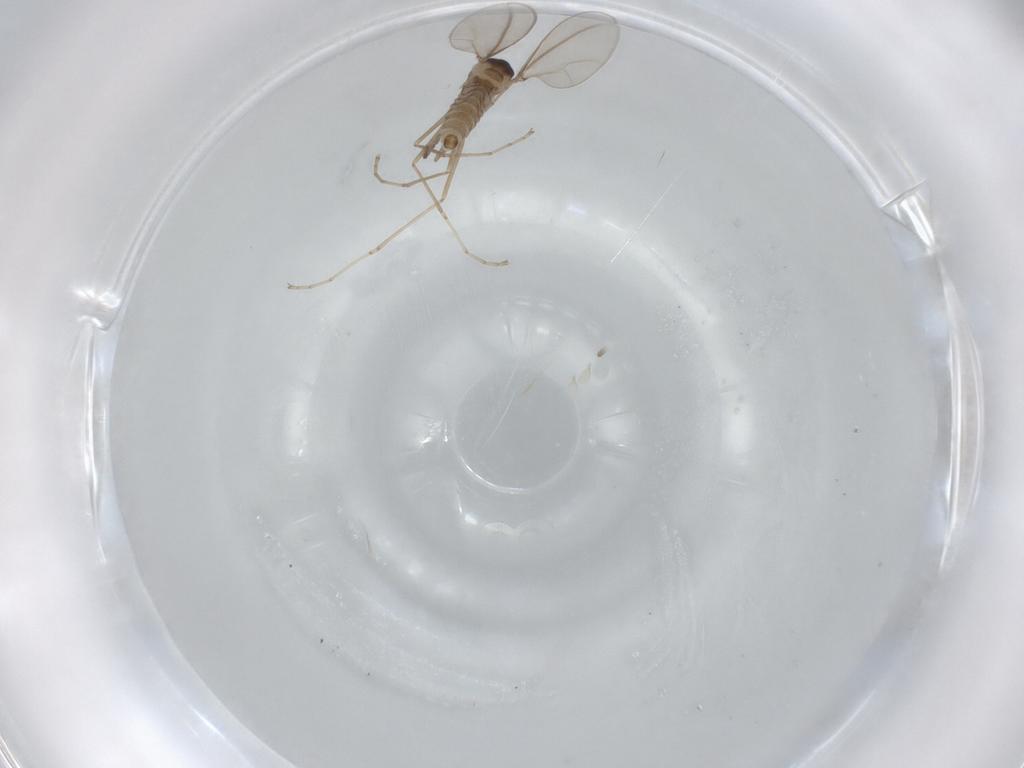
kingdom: Animalia
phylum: Arthropoda
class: Insecta
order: Diptera
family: Cecidomyiidae
